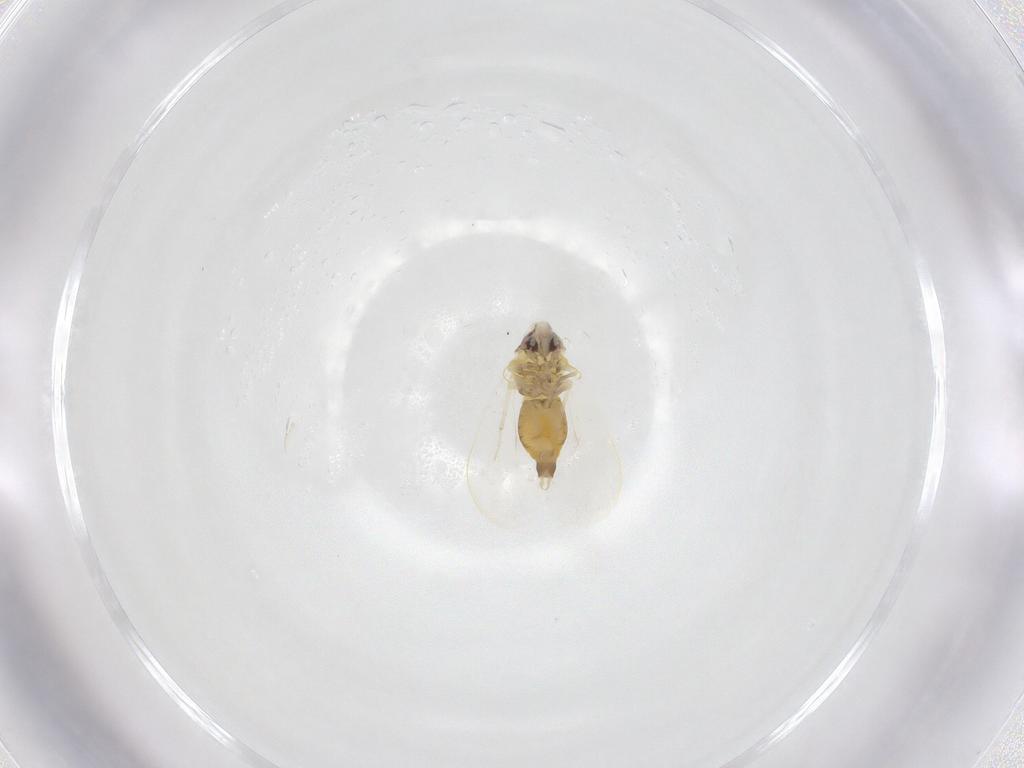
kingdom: Animalia
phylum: Arthropoda
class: Insecta
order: Hemiptera
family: Aleyrodidae
